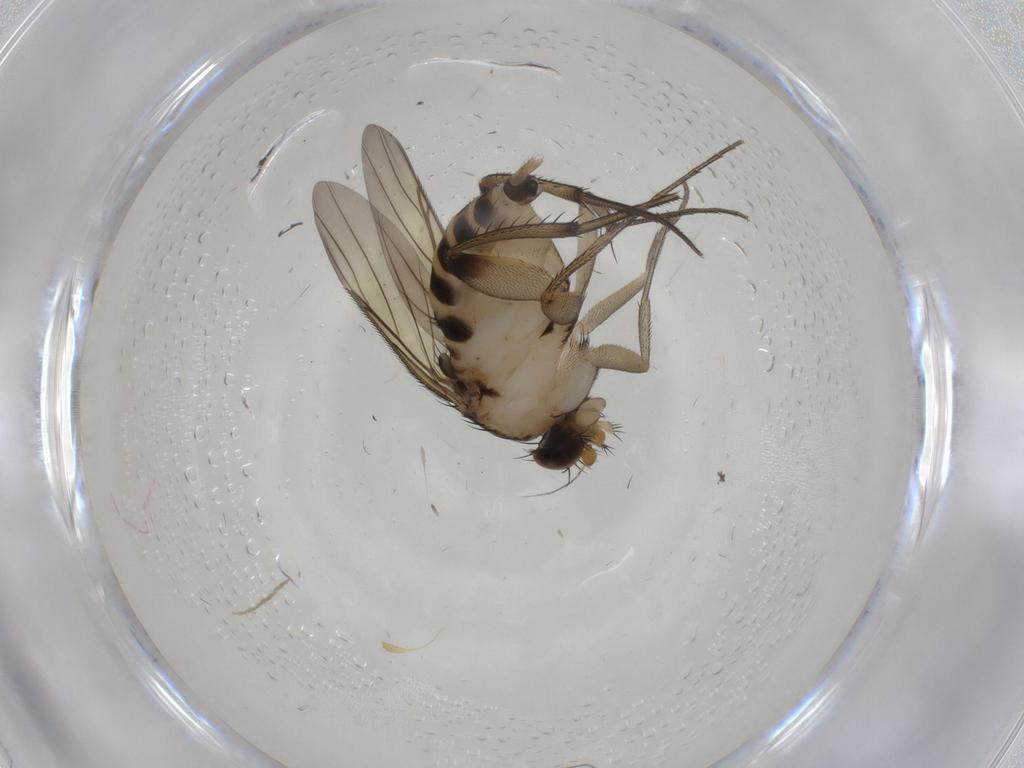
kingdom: Animalia
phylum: Arthropoda
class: Insecta
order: Diptera
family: Phoridae
